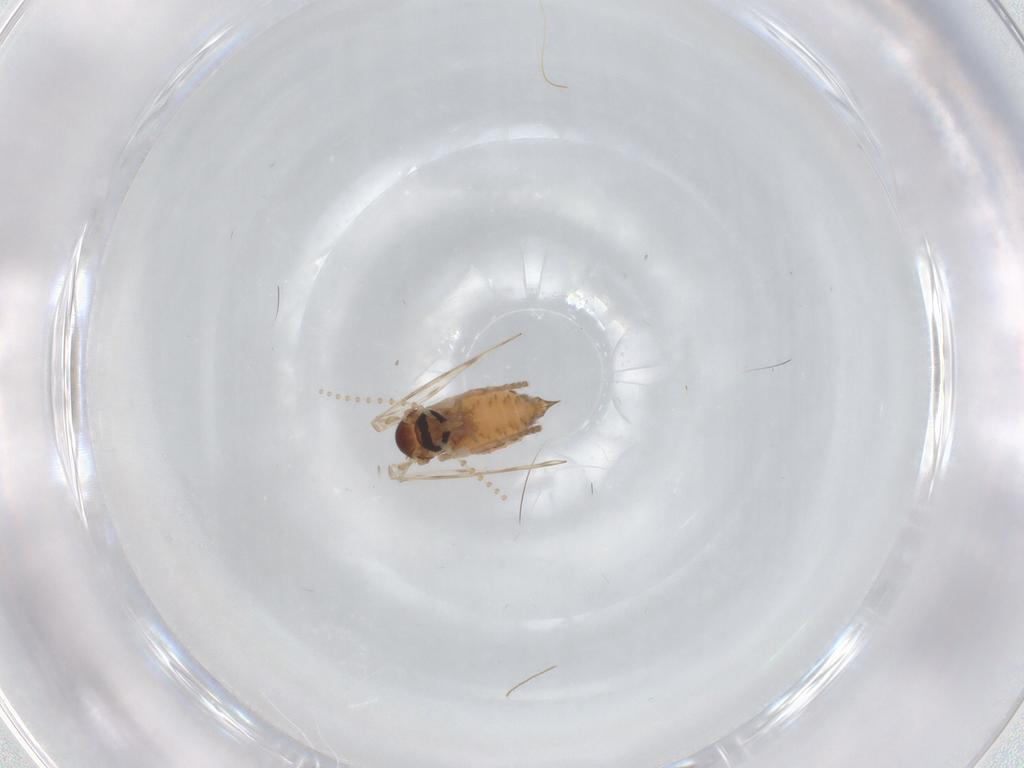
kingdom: Animalia
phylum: Arthropoda
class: Insecta
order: Diptera
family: Psychodidae
